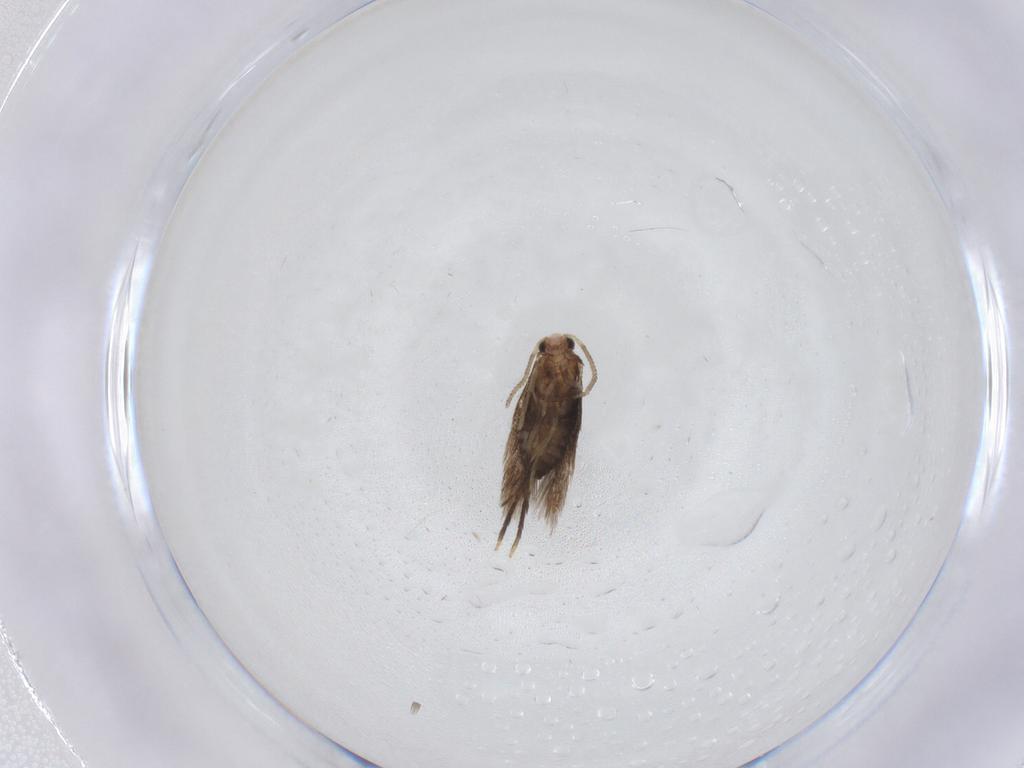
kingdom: Animalia
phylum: Arthropoda
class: Insecta
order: Lepidoptera
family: Nepticulidae
